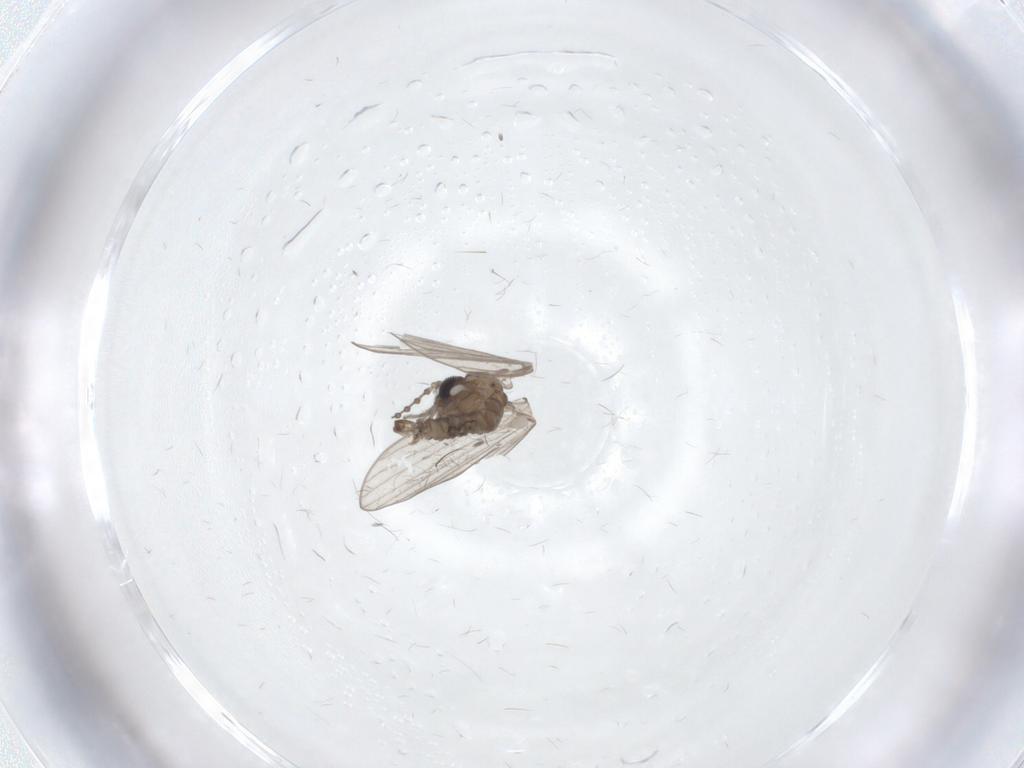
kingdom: Animalia
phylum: Arthropoda
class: Insecta
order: Diptera
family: Psychodidae
